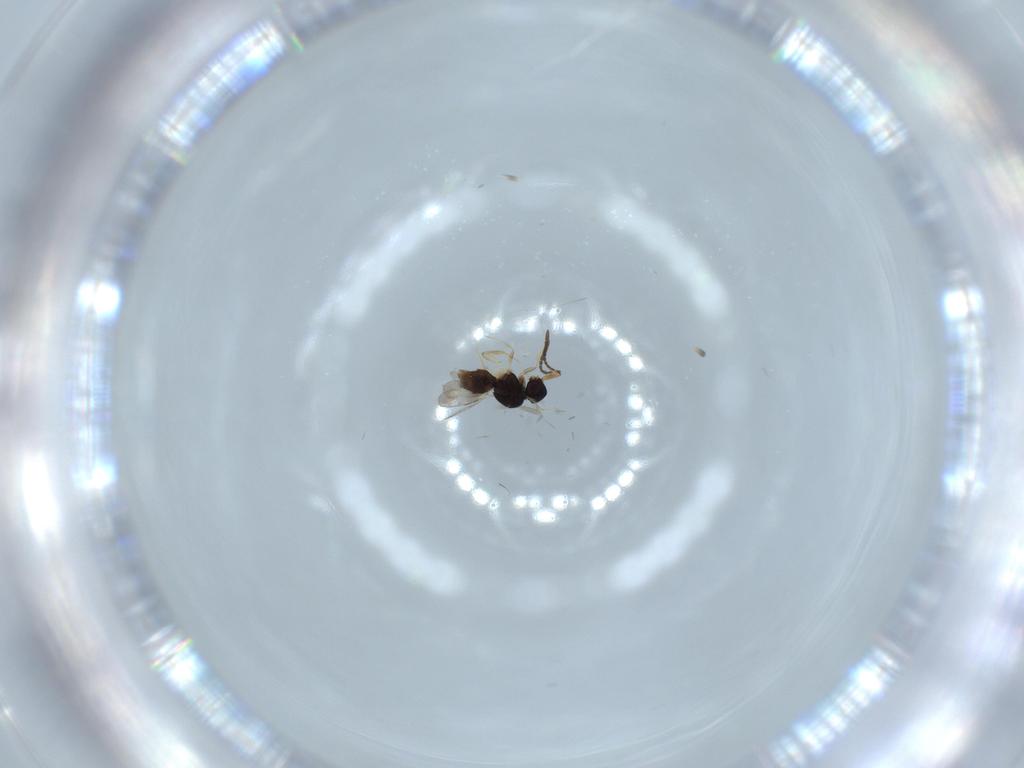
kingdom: Animalia
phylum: Arthropoda
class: Insecta
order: Hymenoptera
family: Ceraphronidae
